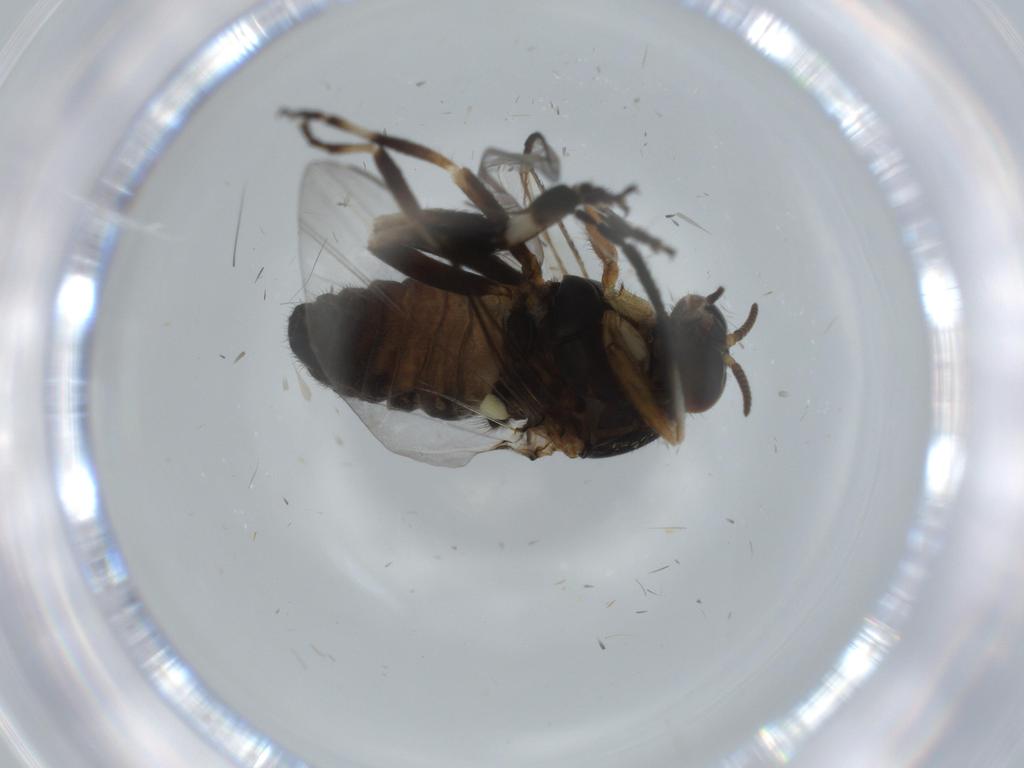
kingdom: Animalia
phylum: Arthropoda
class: Insecta
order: Diptera
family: Cecidomyiidae
